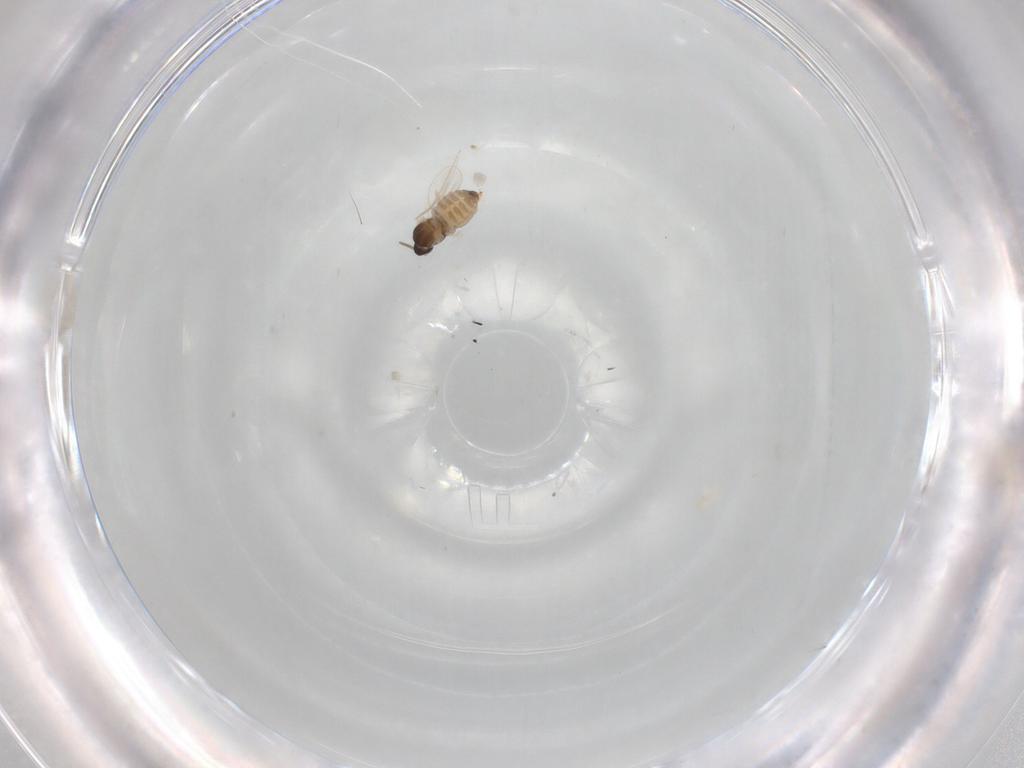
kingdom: Animalia
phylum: Arthropoda
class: Insecta
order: Diptera
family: Cecidomyiidae
